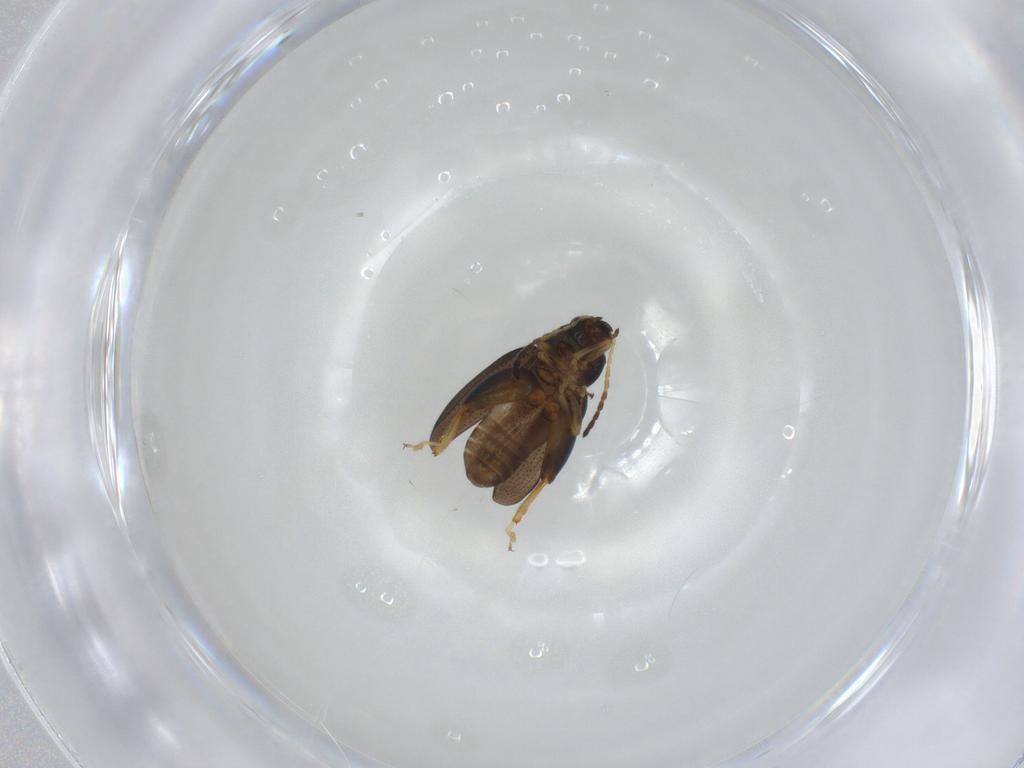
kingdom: Animalia
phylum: Arthropoda
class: Insecta
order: Coleoptera
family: Chrysomelidae
